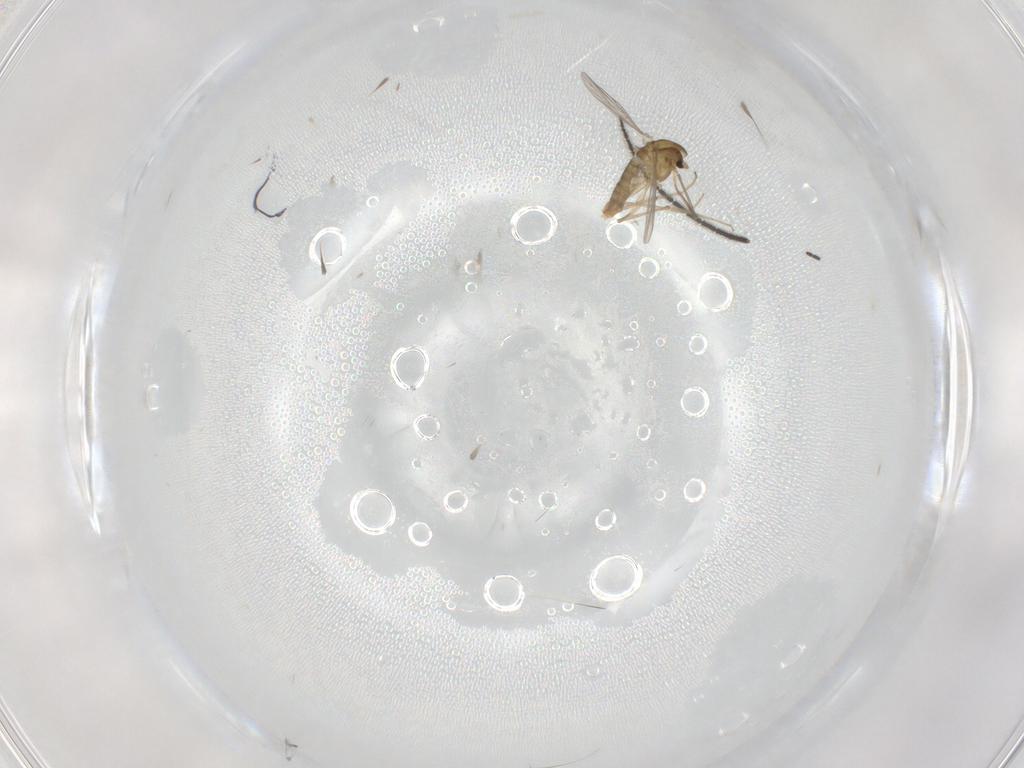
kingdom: Animalia
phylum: Arthropoda
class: Insecta
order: Diptera
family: Chironomidae
